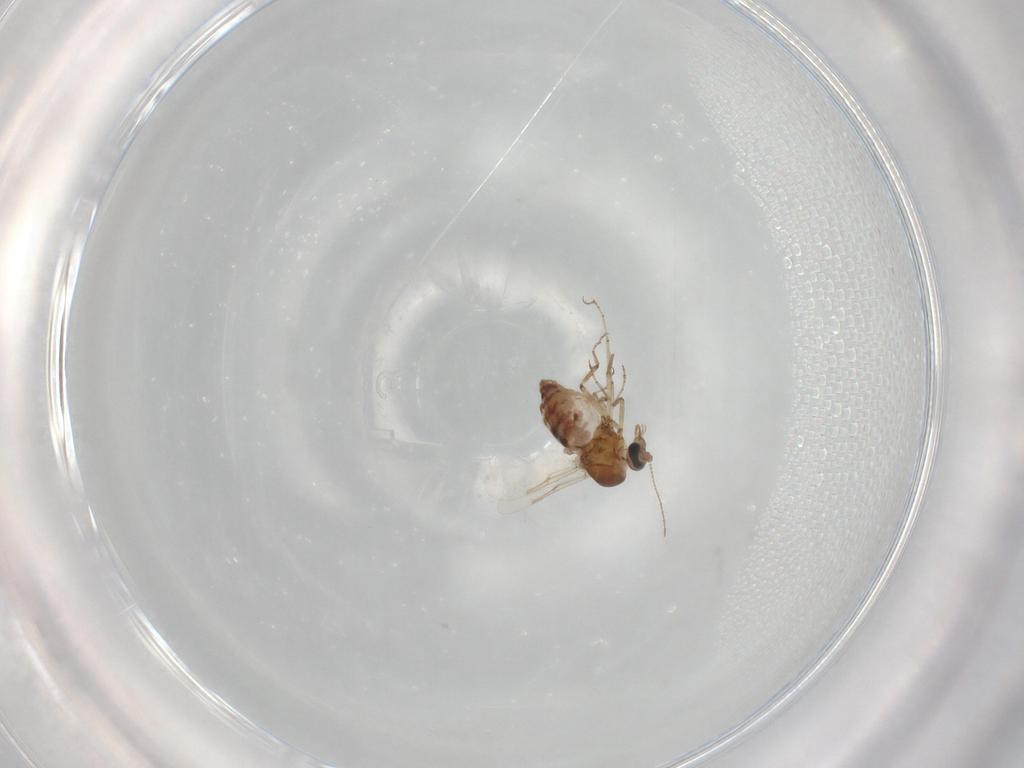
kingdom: Animalia
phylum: Arthropoda
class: Insecta
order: Diptera
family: Ceratopogonidae
